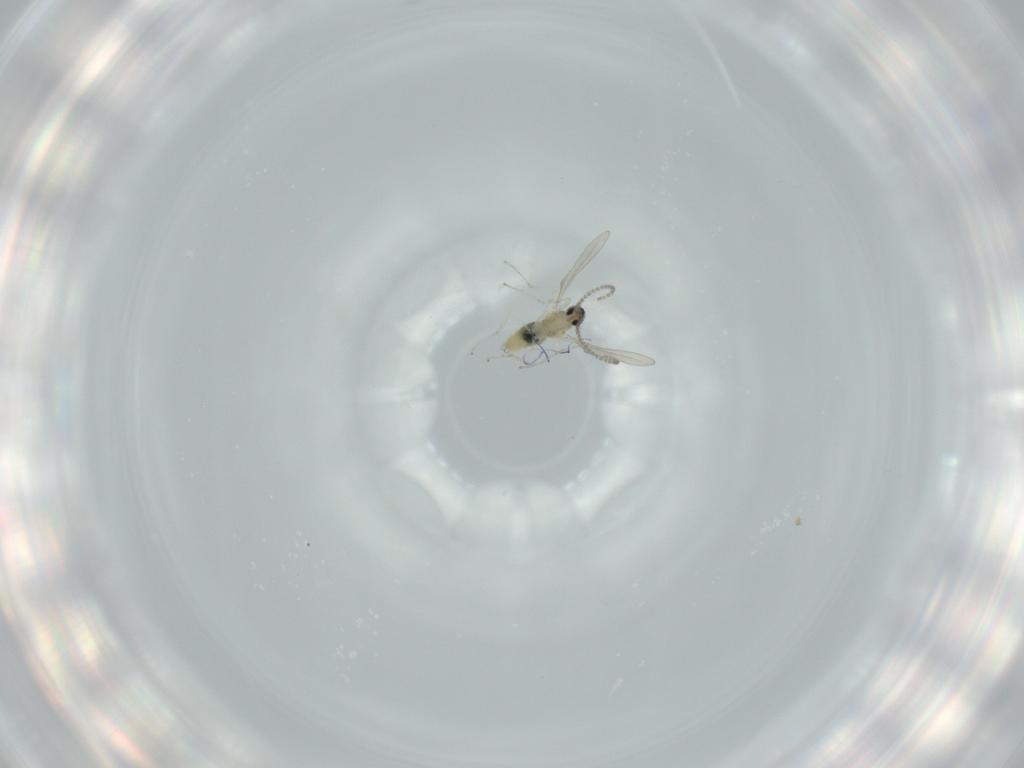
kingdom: Animalia
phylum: Arthropoda
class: Insecta
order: Diptera
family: Cecidomyiidae
